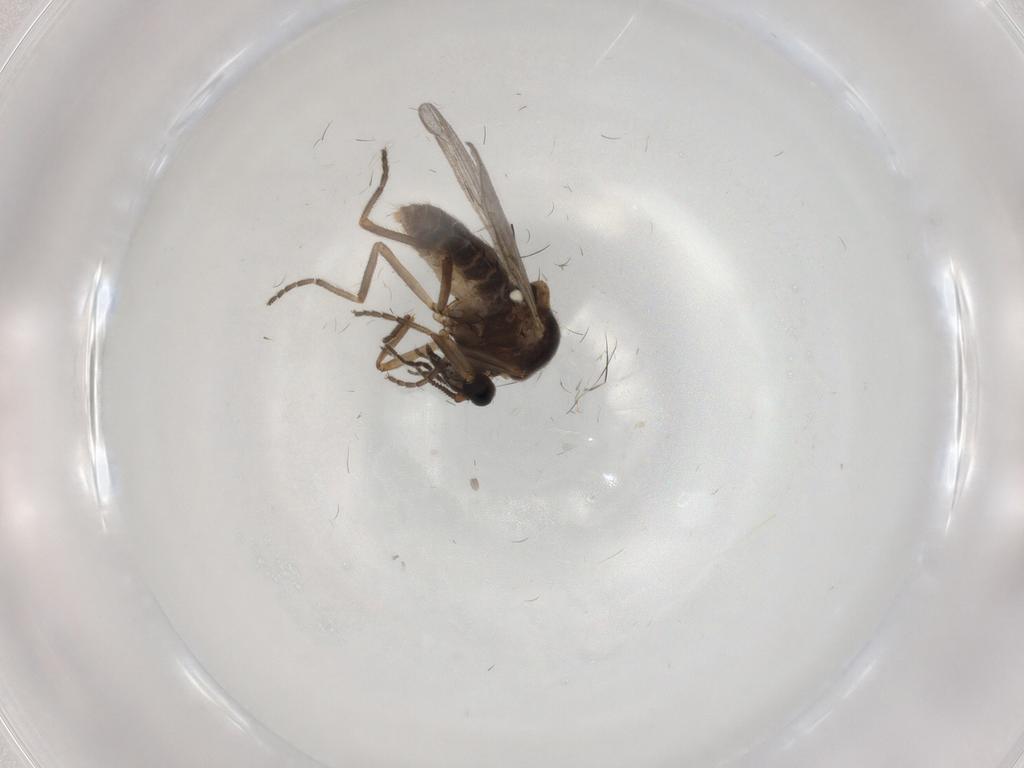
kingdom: Animalia
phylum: Arthropoda
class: Insecta
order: Diptera
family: Ceratopogonidae
